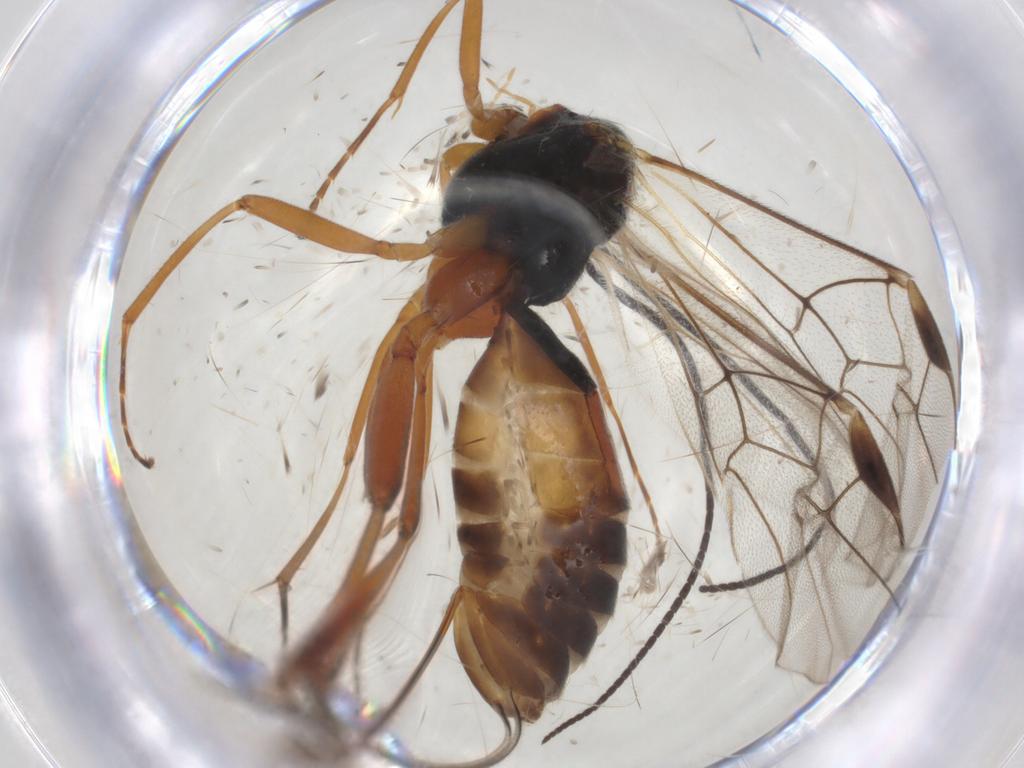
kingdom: Animalia
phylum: Arthropoda
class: Insecta
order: Hymenoptera
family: Braconidae
